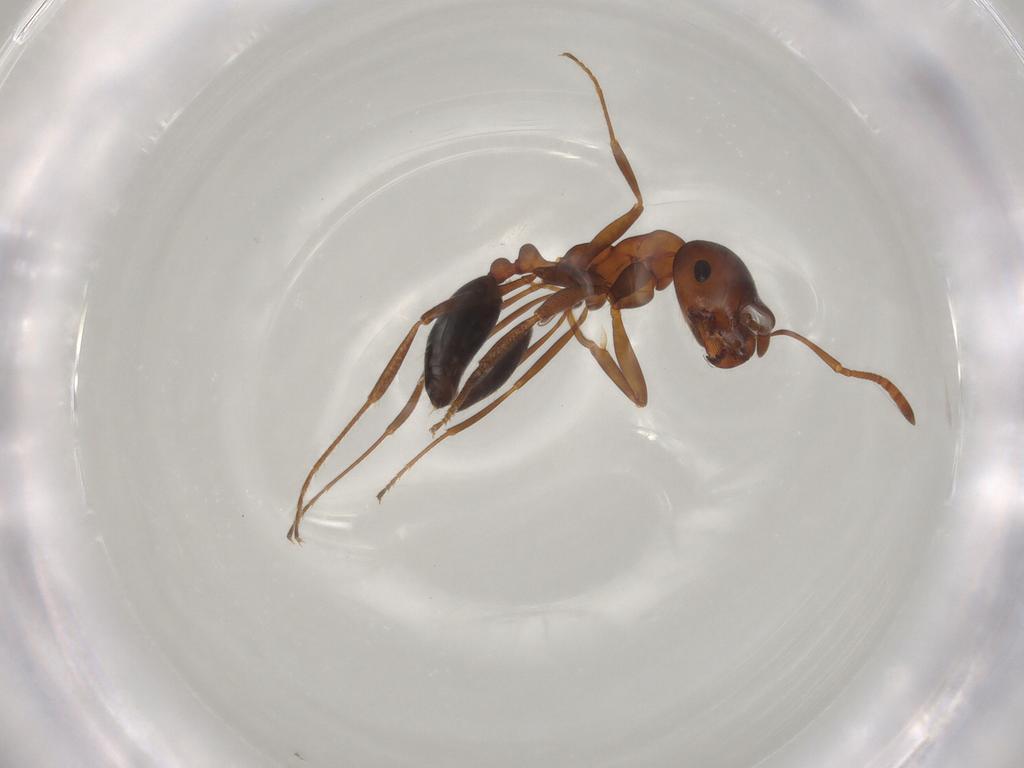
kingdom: Animalia
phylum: Arthropoda
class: Insecta
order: Hymenoptera
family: Formicidae
